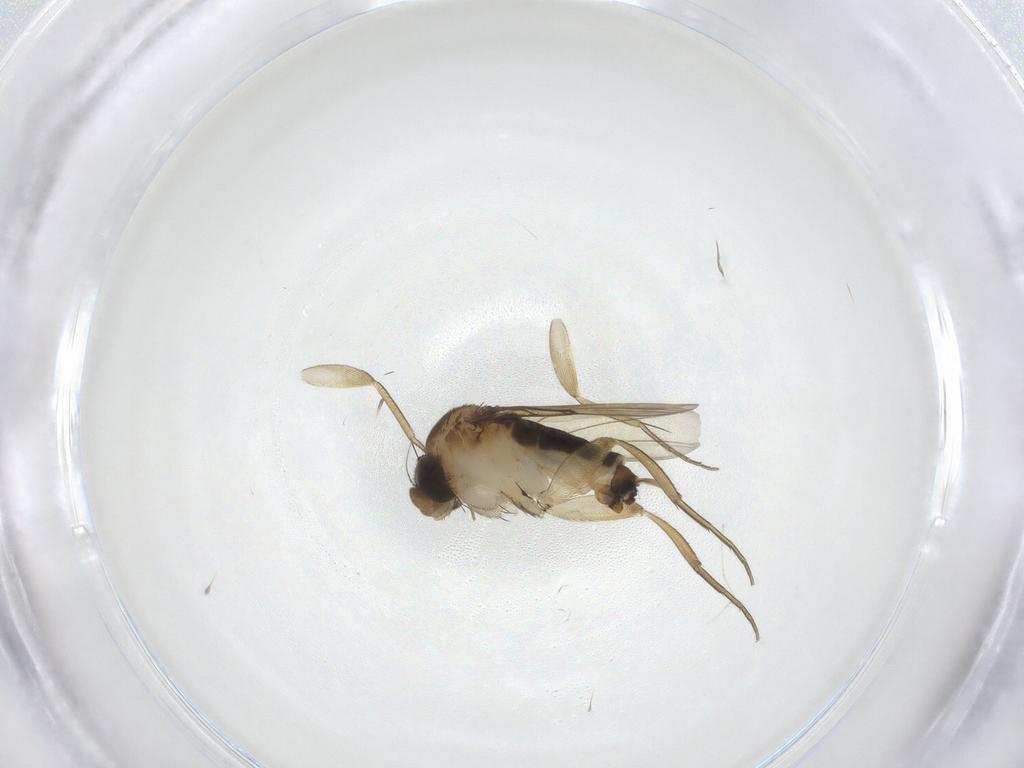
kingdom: Animalia
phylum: Arthropoda
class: Insecta
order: Diptera
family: Phoridae
